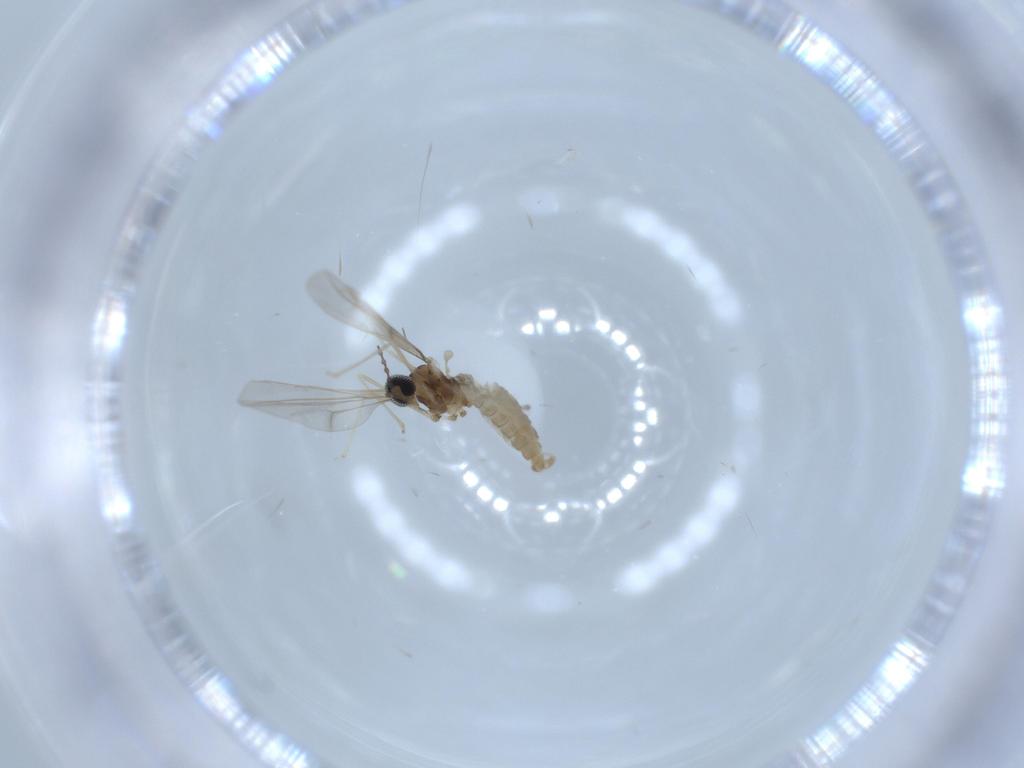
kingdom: Animalia
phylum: Arthropoda
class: Insecta
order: Diptera
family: Cecidomyiidae
